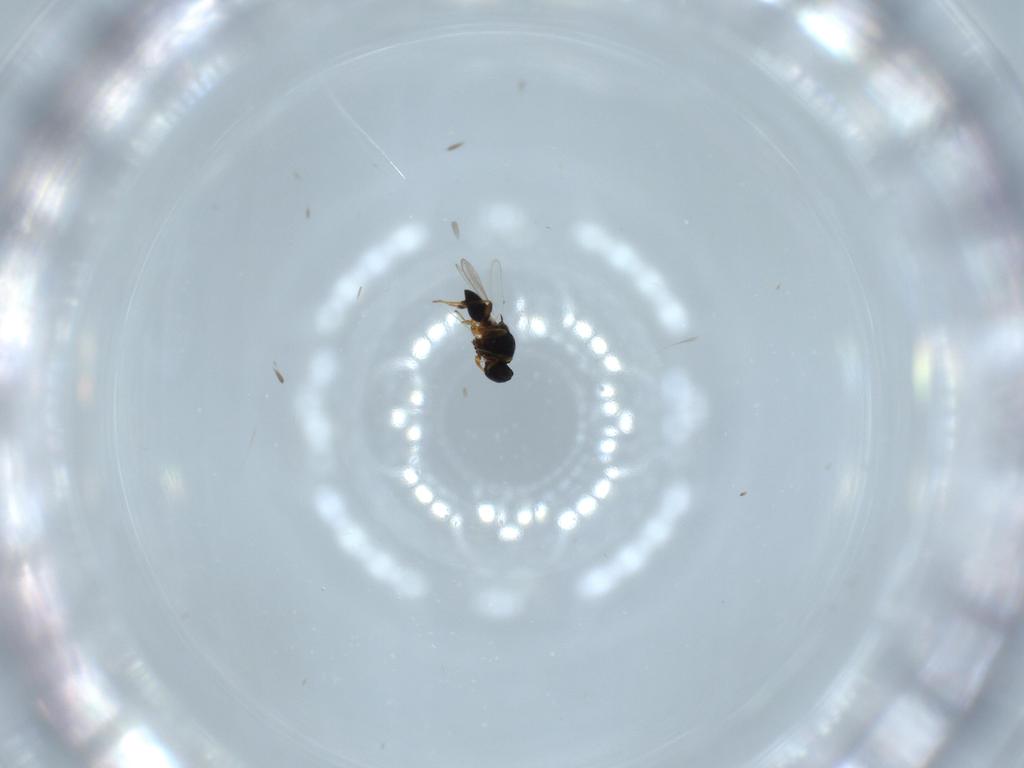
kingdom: Animalia
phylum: Arthropoda
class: Insecta
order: Hymenoptera
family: Platygastridae
